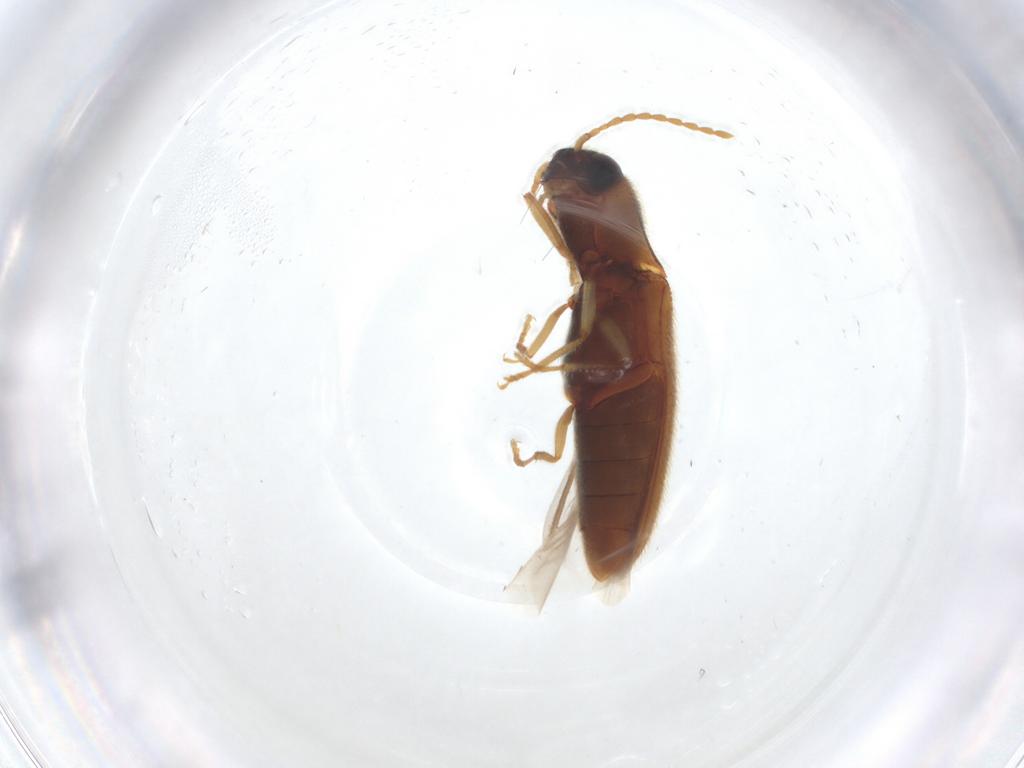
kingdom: Animalia
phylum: Arthropoda
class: Insecta
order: Coleoptera
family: Elateridae
